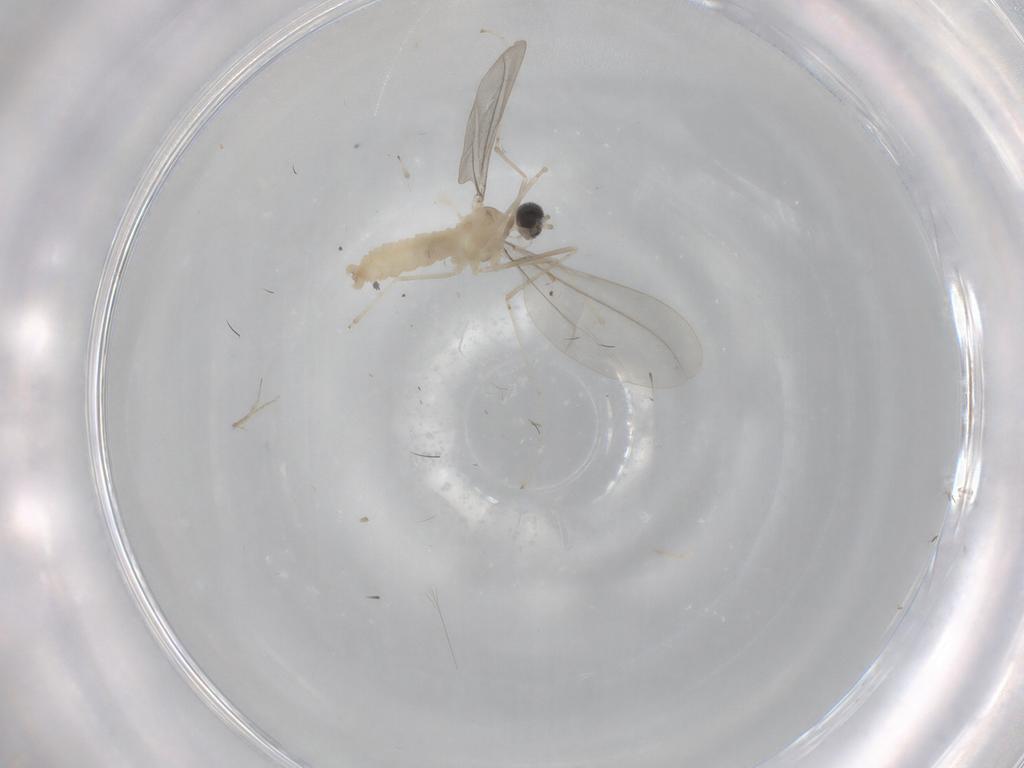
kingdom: Animalia
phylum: Arthropoda
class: Insecta
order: Diptera
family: Cecidomyiidae
